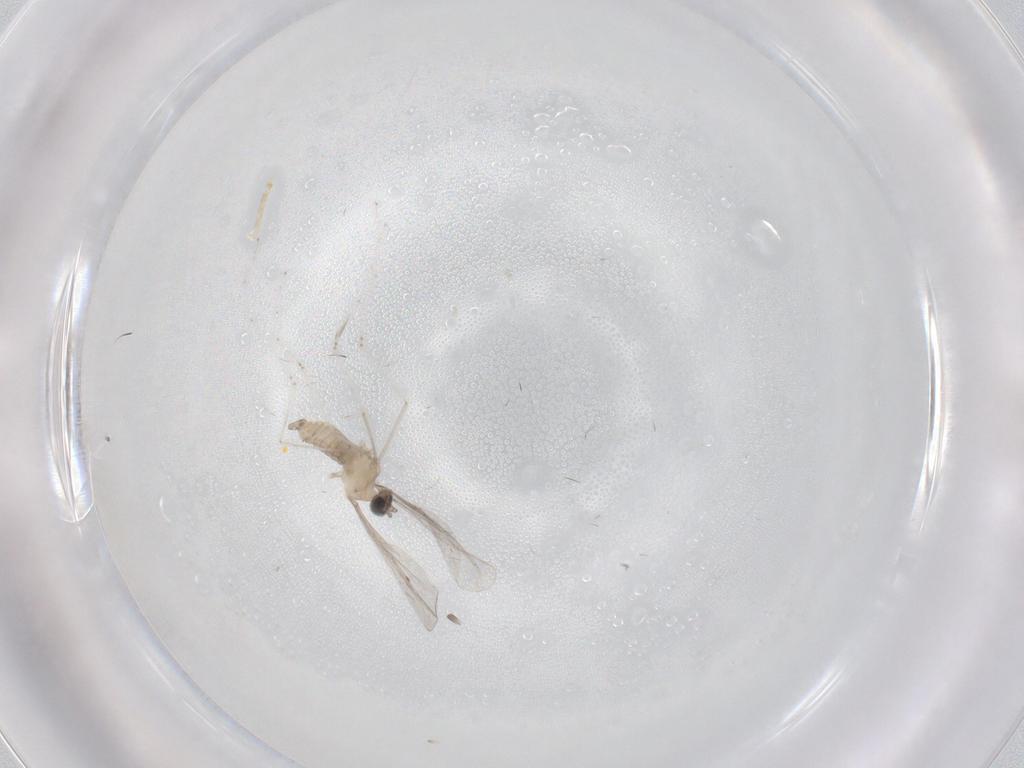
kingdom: Animalia
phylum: Arthropoda
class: Insecta
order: Diptera
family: Cecidomyiidae
